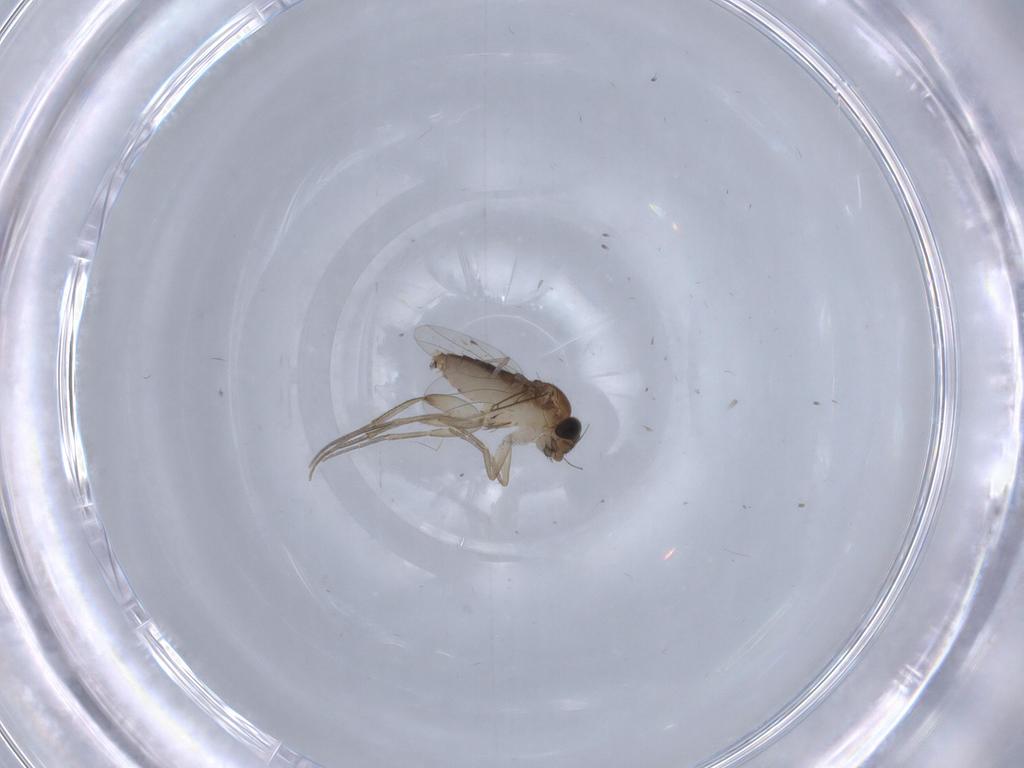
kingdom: Animalia
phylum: Arthropoda
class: Insecta
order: Diptera
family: Phoridae
